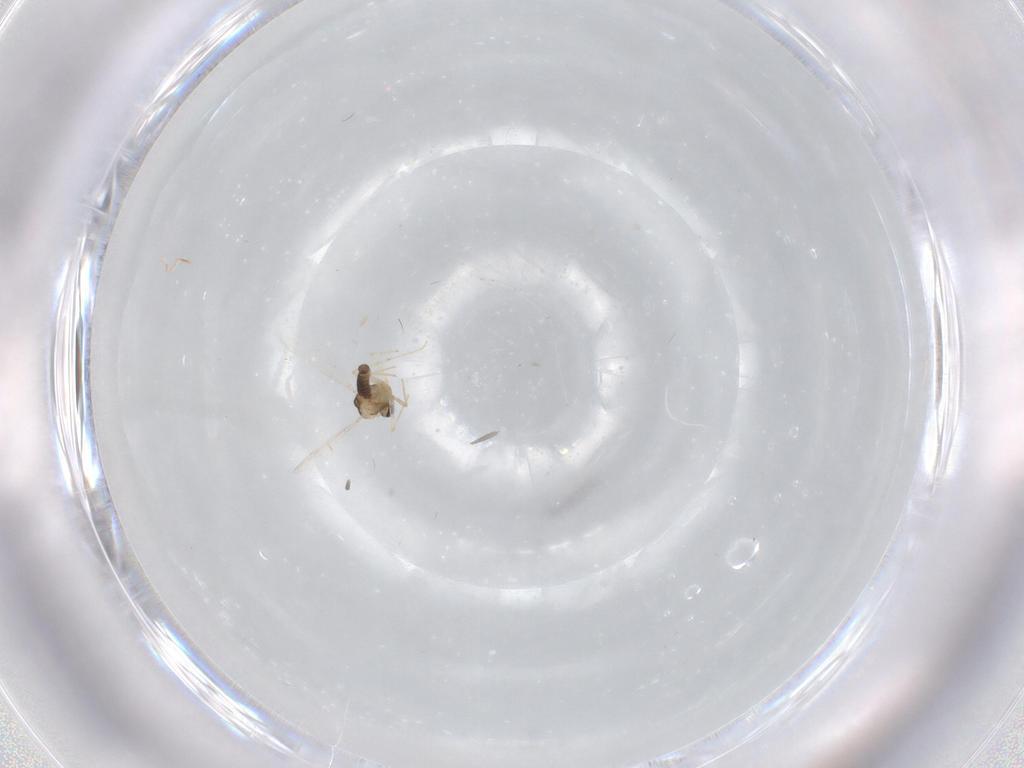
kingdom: Animalia
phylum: Arthropoda
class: Insecta
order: Diptera
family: Chironomidae
